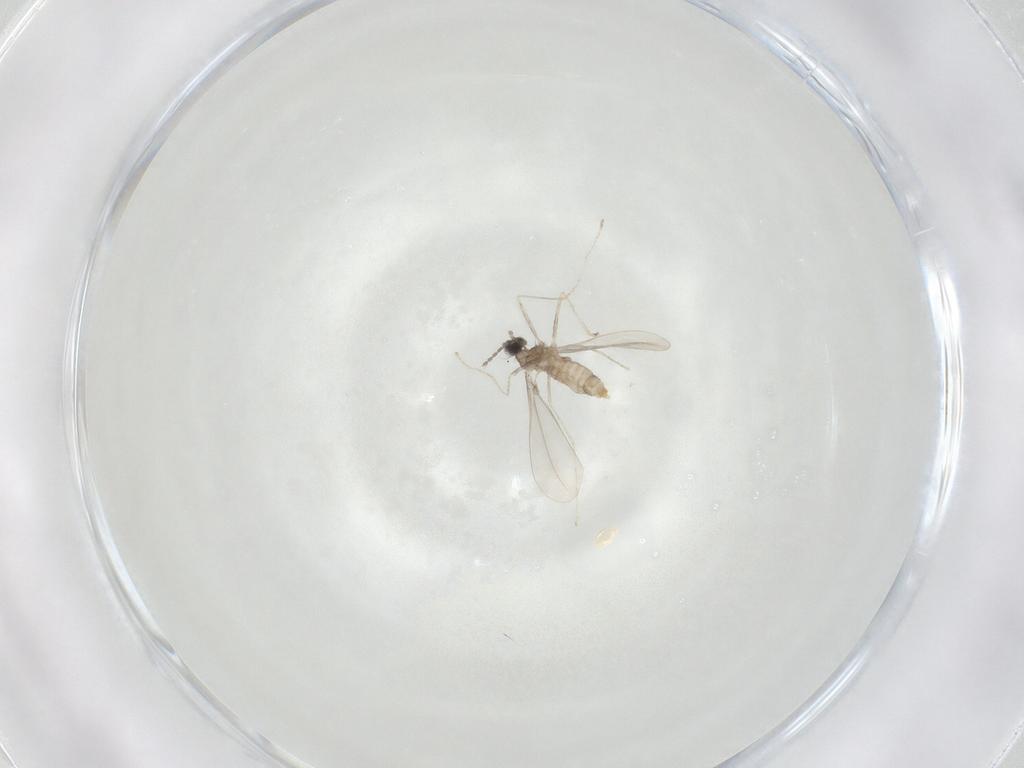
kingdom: Animalia
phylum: Arthropoda
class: Insecta
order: Diptera
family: Cecidomyiidae
